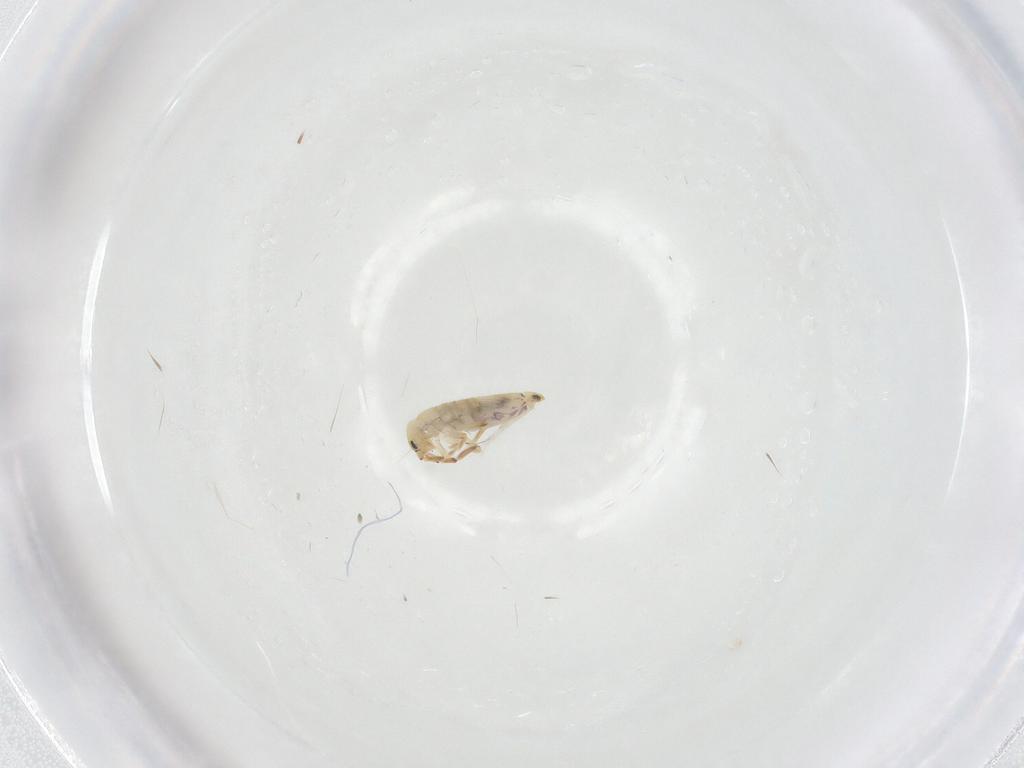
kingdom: Animalia
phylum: Arthropoda
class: Collembola
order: Entomobryomorpha
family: Entomobryidae
